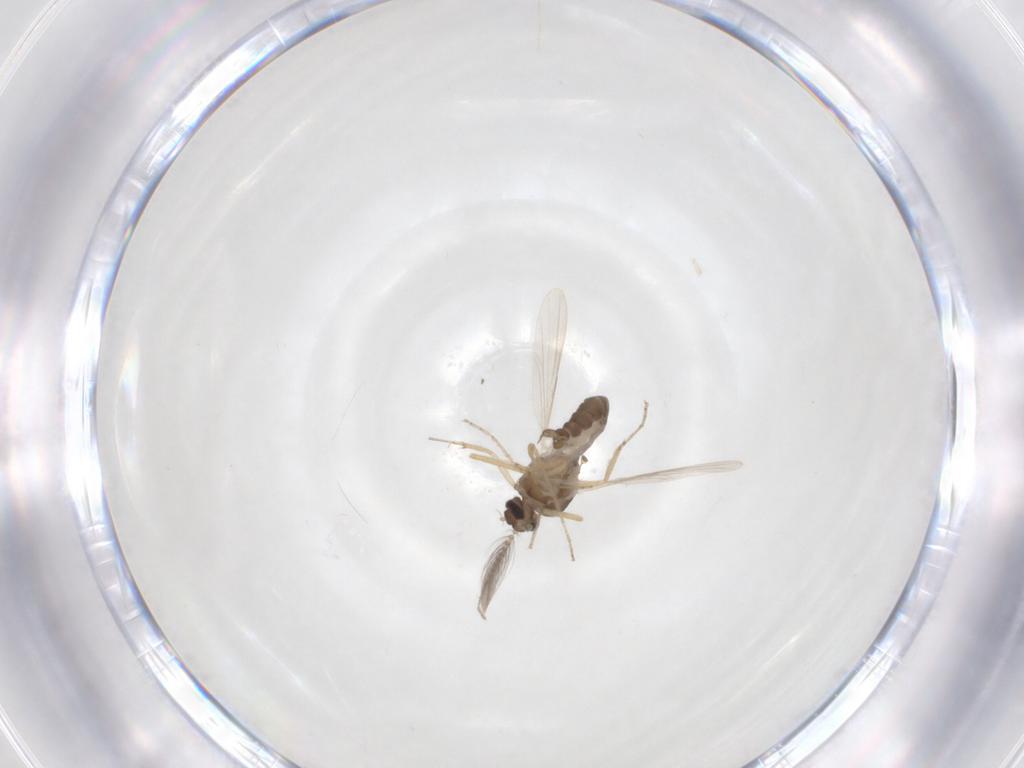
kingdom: Animalia
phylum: Arthropoda
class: Insecta
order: Diptera
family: Ceratopogonidae
